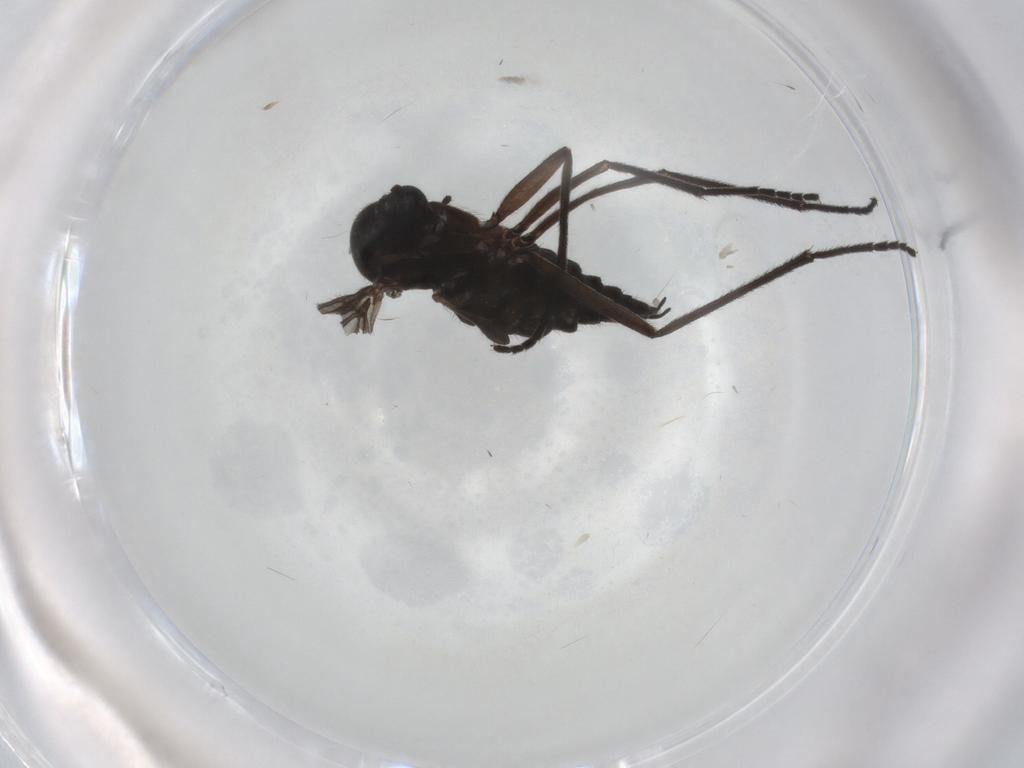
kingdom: Animalia
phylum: Arthropoda
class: Insecta
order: Diptera
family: Sciaridae
